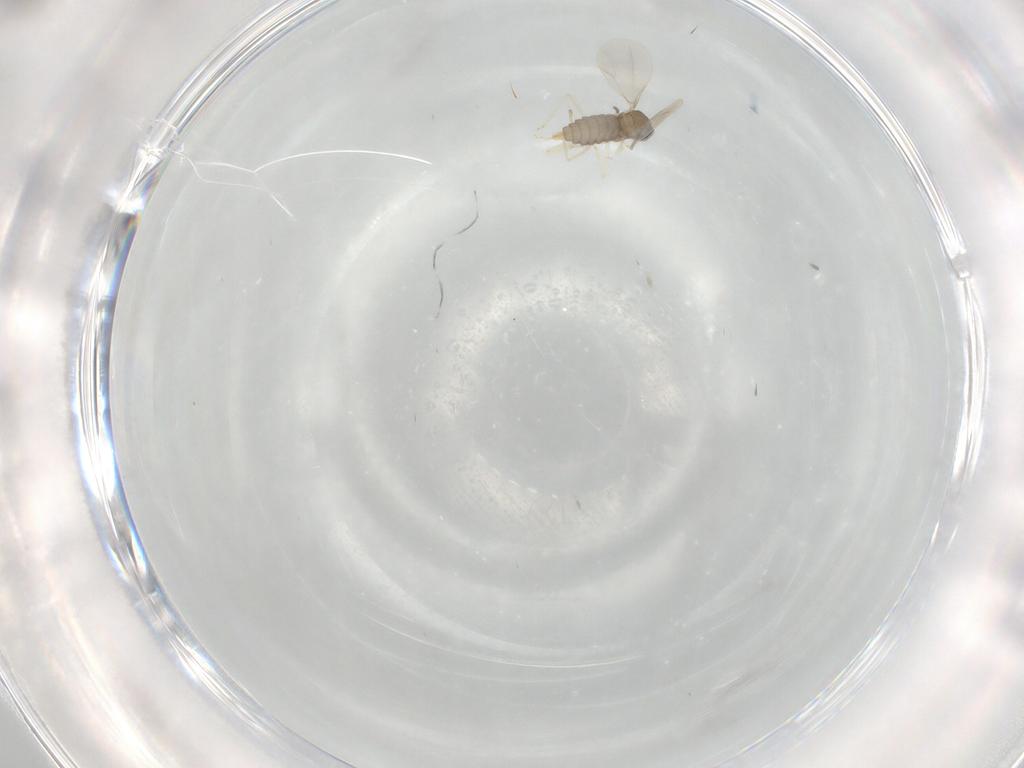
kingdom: Animalia
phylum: Arthropoda
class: Insecta
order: Diptera
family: Cecidomyiidae
